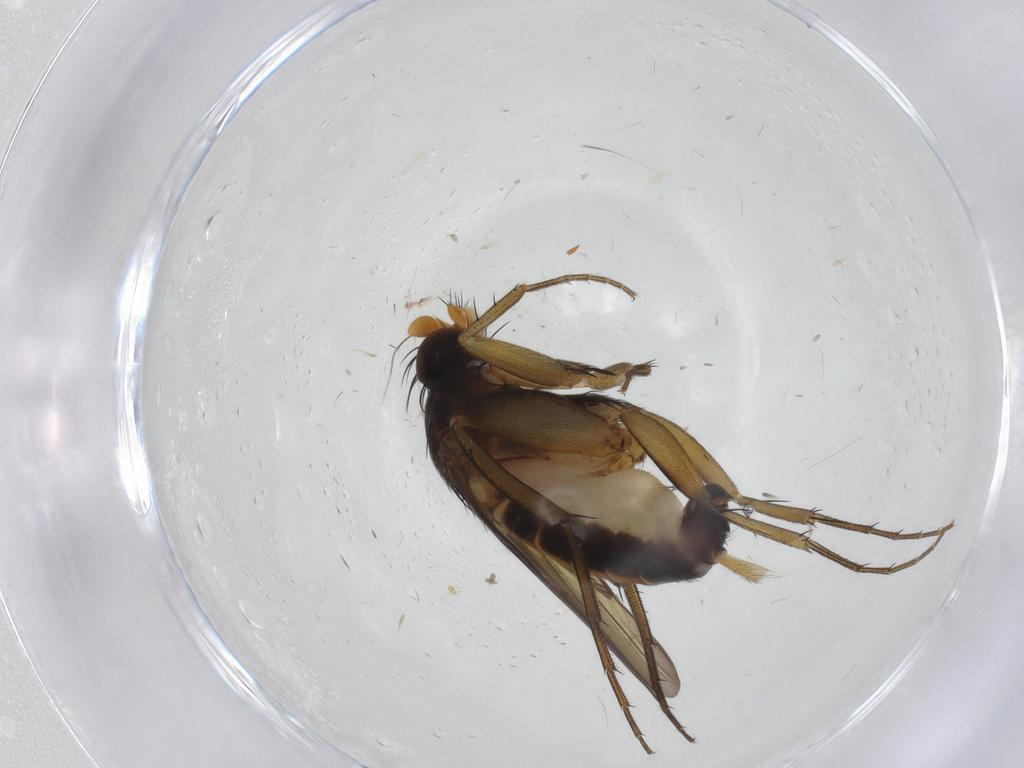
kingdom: Animalia
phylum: Arthropoda
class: Insecta
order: Diptera
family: Phoridae
